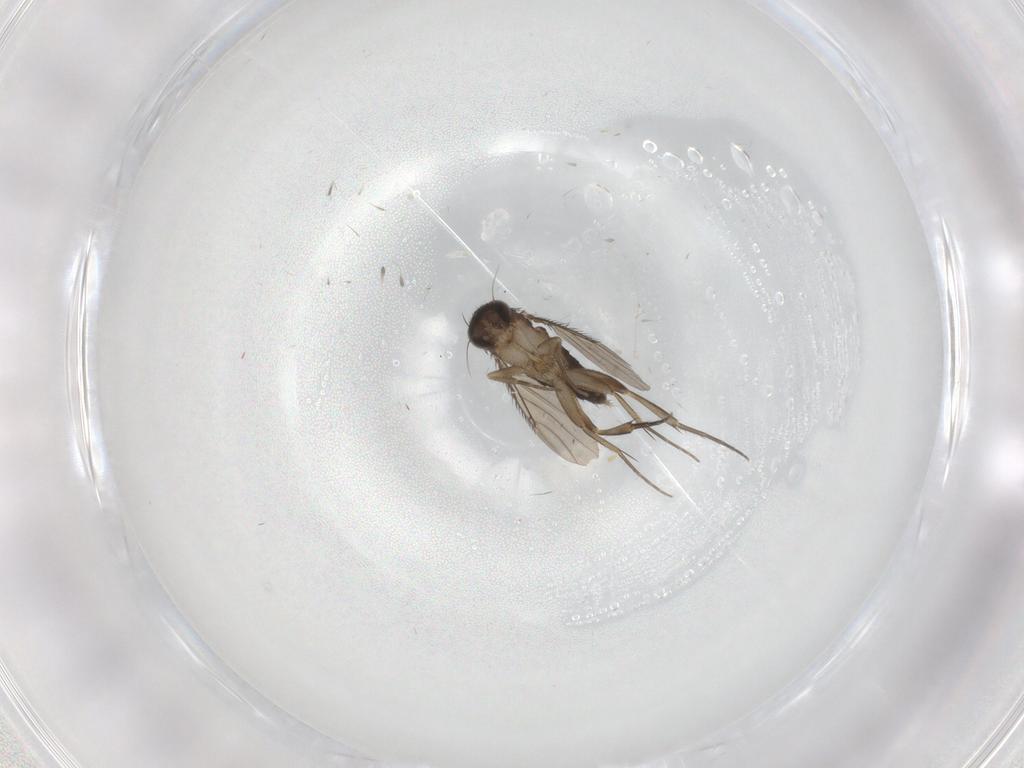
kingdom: Animalia
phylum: Arthropoda
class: Insecta
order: Diptera
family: Phoridae
